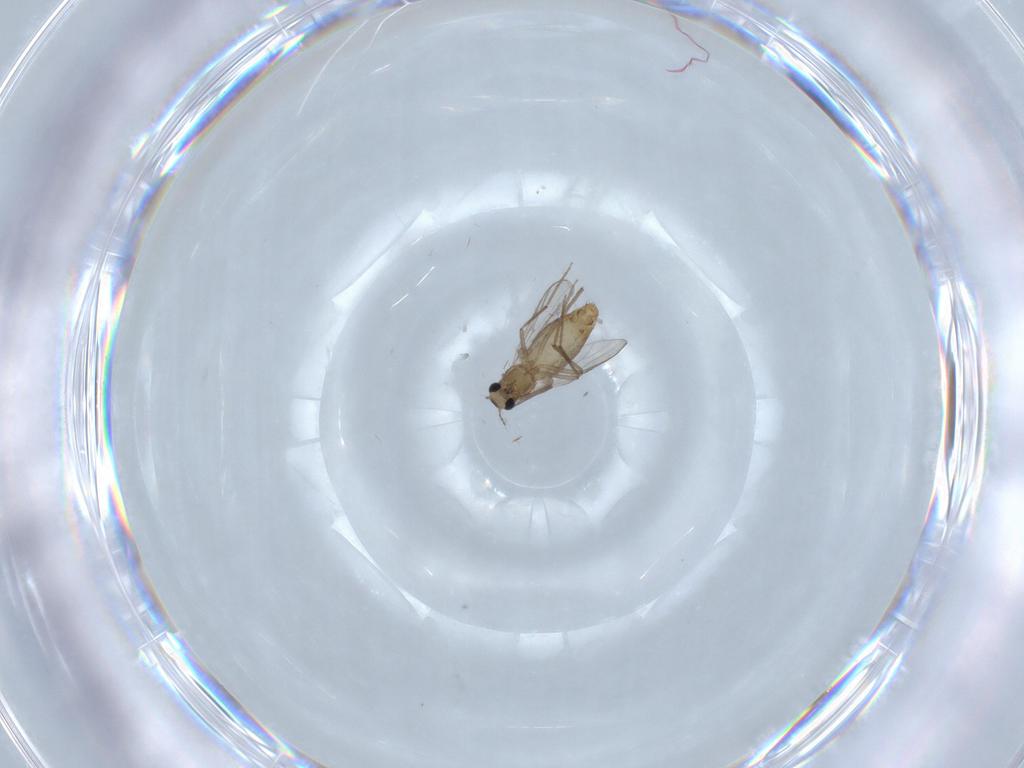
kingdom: Animalia
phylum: Arthropoda
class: Insecta
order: Diptera
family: Chironomidae
